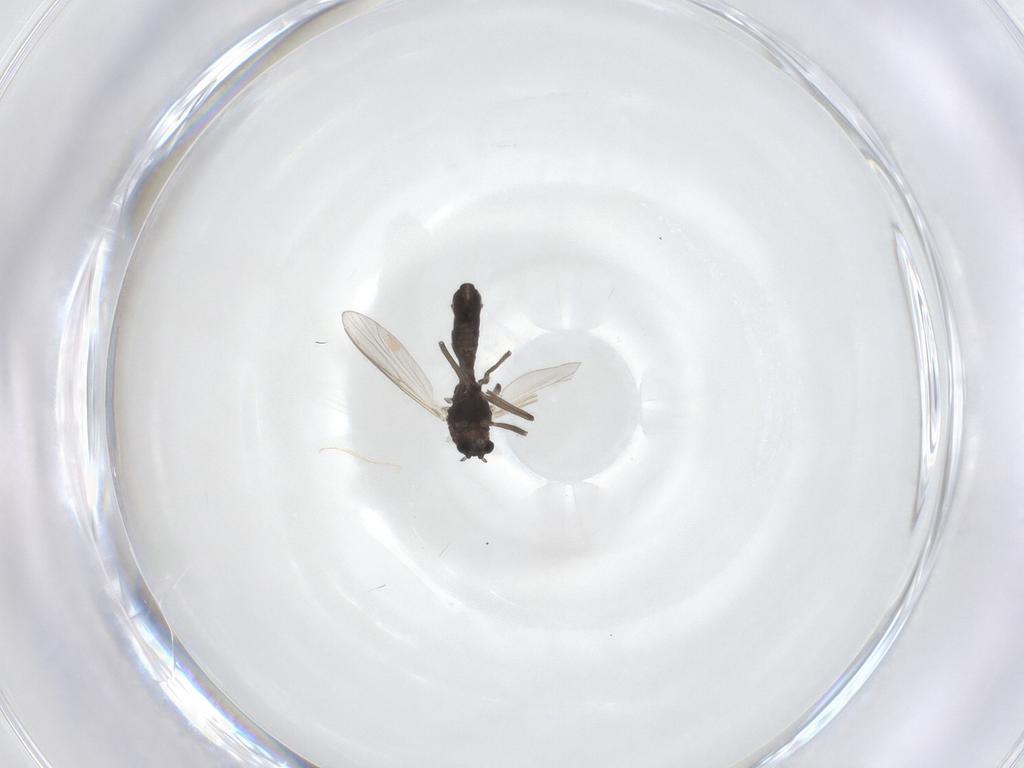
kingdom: Animalia
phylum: Arthropoda
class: Insecta
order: Diptera
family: Chironomidae
